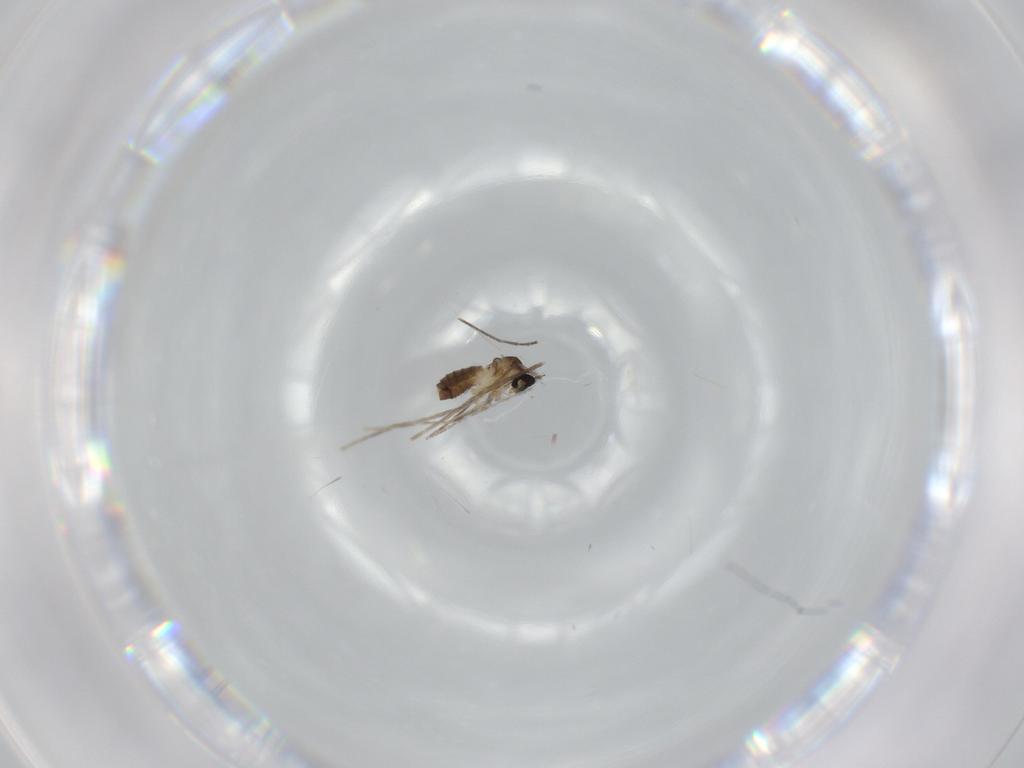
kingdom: Animalia
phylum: Arthropoda
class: Insecta
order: Diptera
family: Cecidomyiidae
